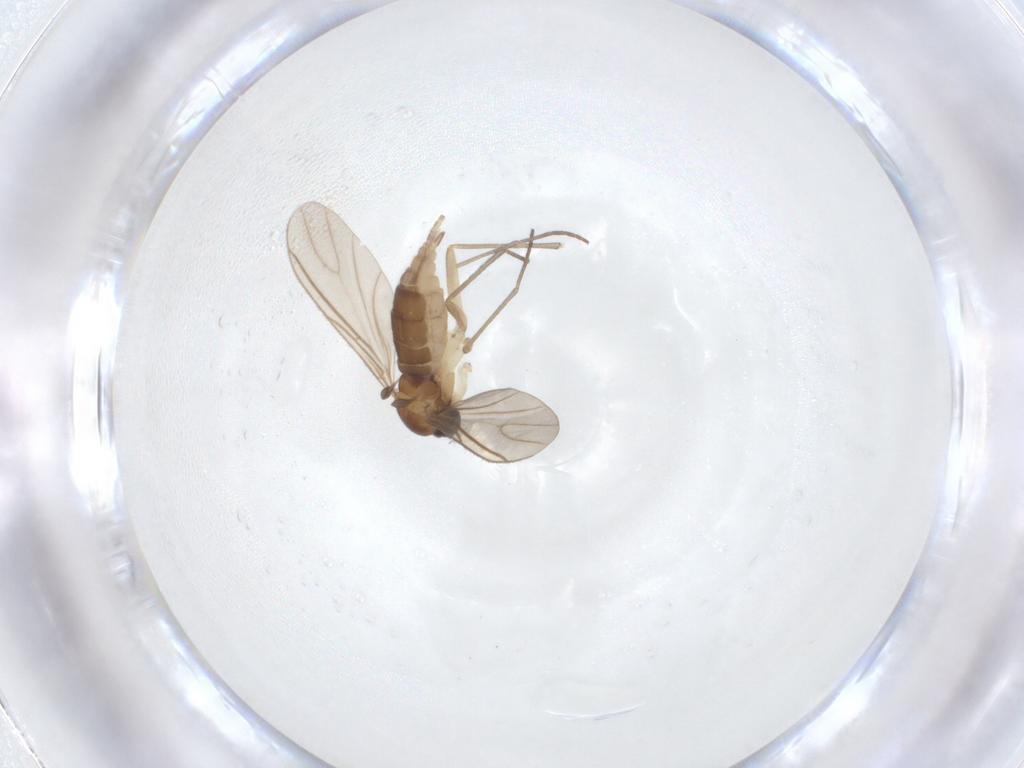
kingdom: Animalia
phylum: Arthropoda
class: Insecta
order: Diptera
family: Sciaridae
